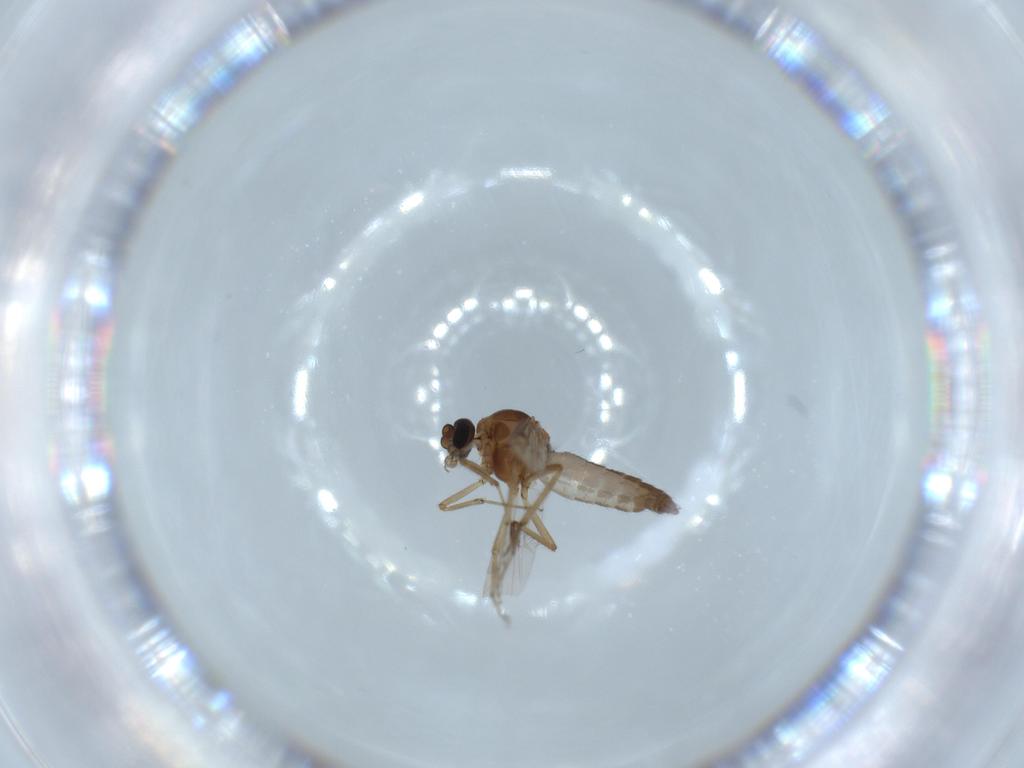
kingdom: Animalia
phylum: Arthropoda
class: Insecta
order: Diptera
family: Ceratopogonidae
